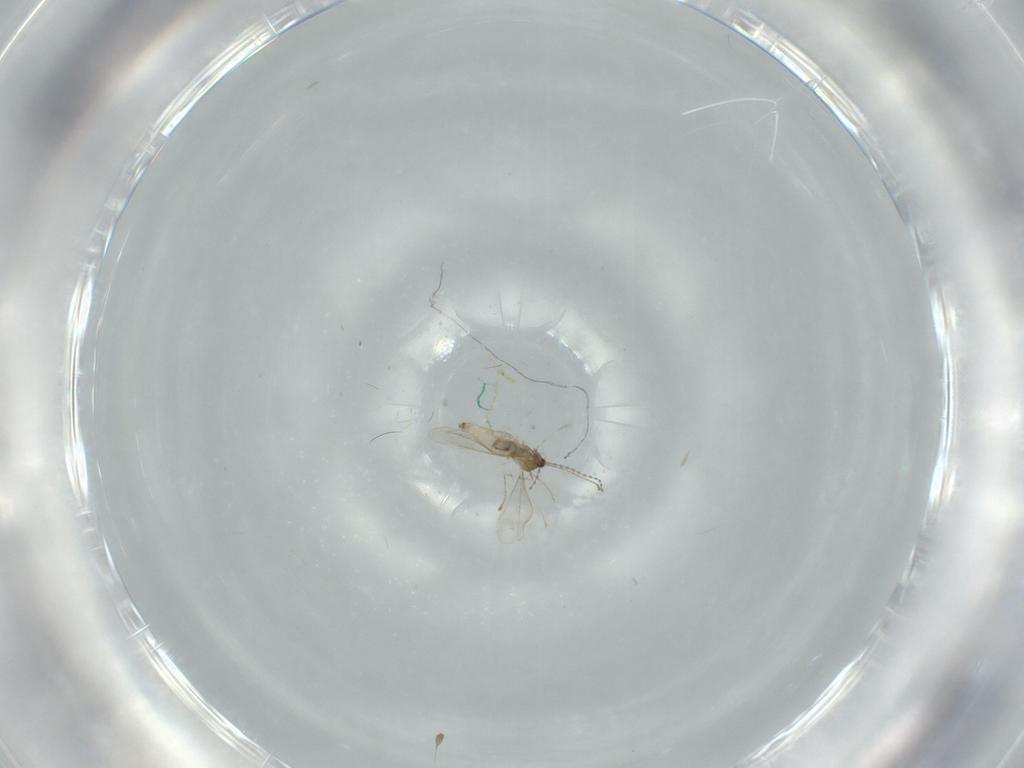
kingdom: Animalia
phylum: Arthropoda
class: Insecta
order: Diptera
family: Cecidomyiidae
